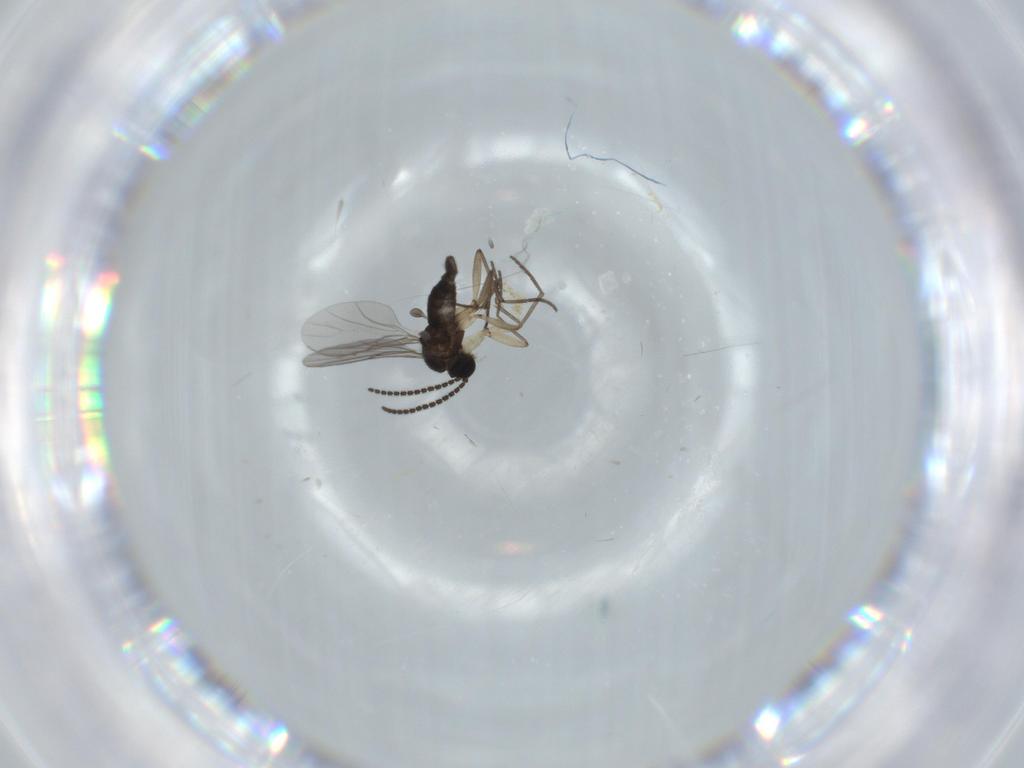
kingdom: Animalia
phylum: Arthropoda
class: Insecta
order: Diptera
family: Sciaridae
